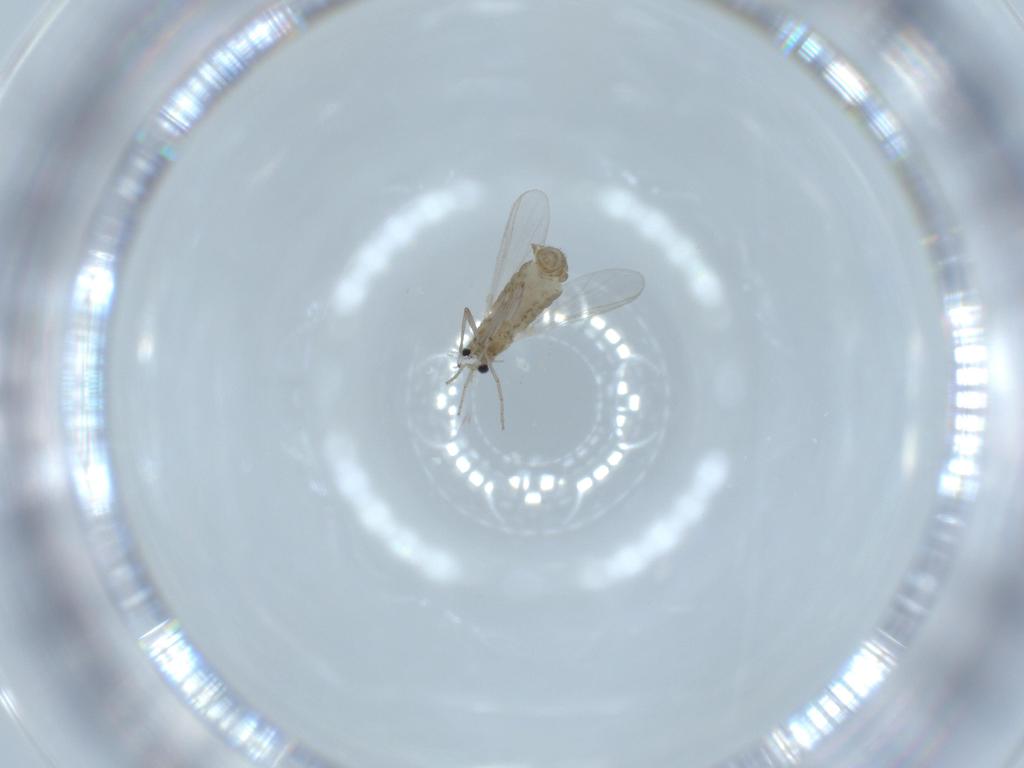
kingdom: Animalia
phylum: Arthropoda
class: Insecta
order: Diptera
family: Chironomidae
